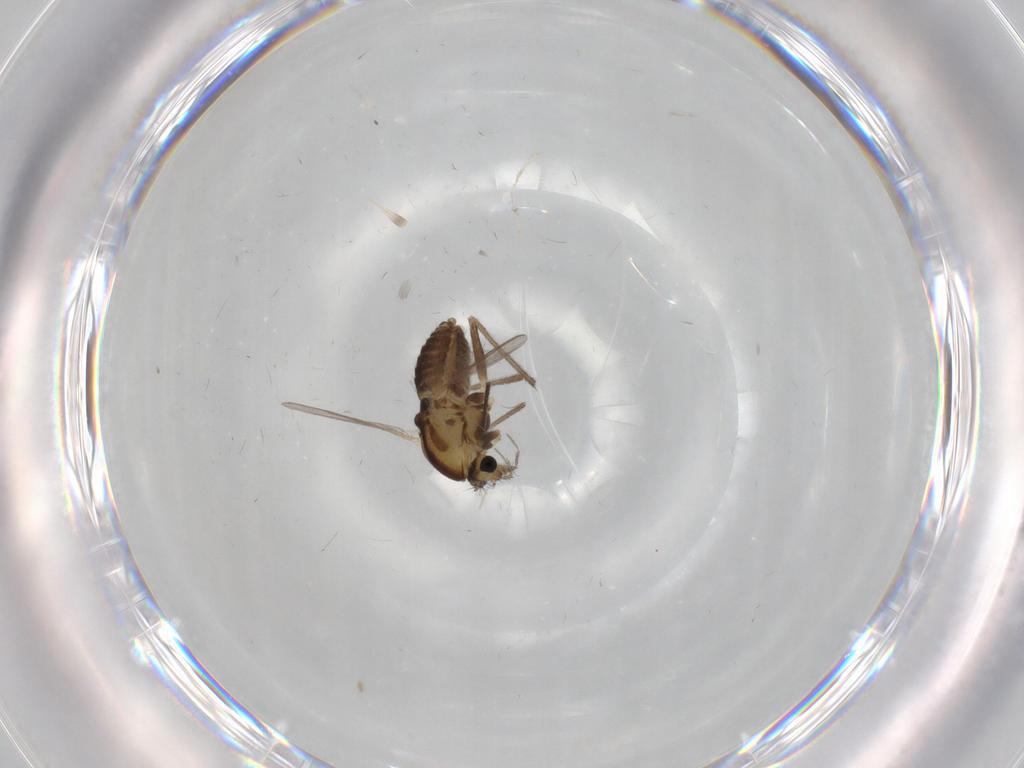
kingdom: Animalia
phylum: Arthropoda
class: Insecta
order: Diptera
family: Chironomidae
